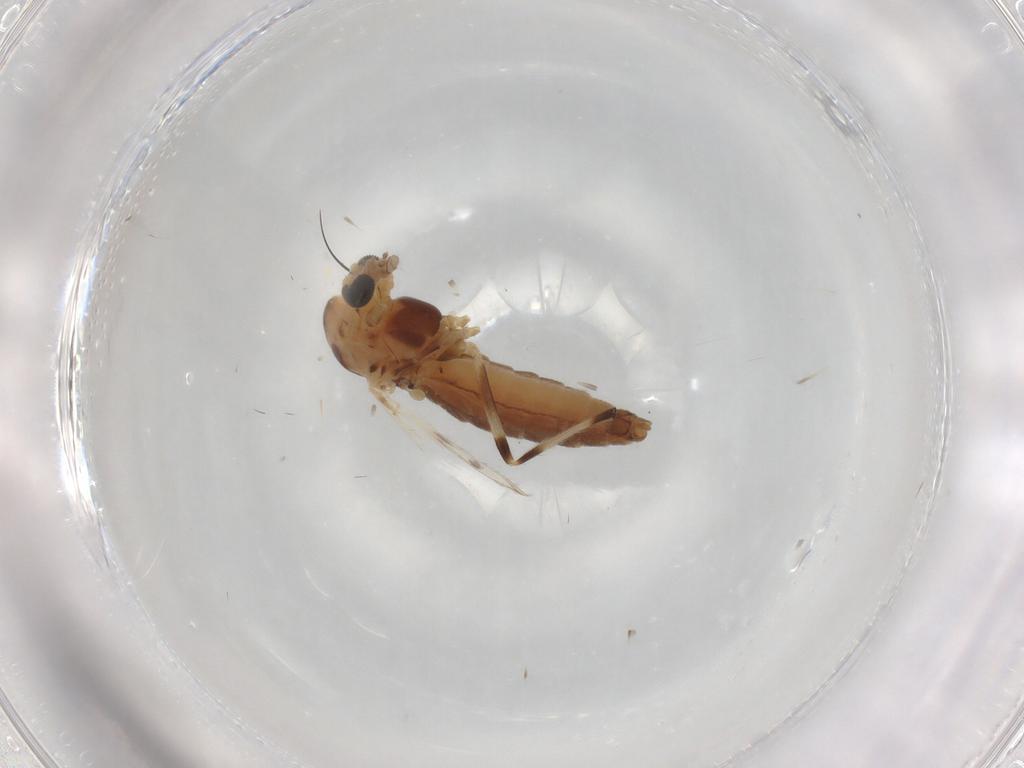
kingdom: Animalia
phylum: Arthropoda
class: Insecta
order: Diptera
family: Chironomidae
